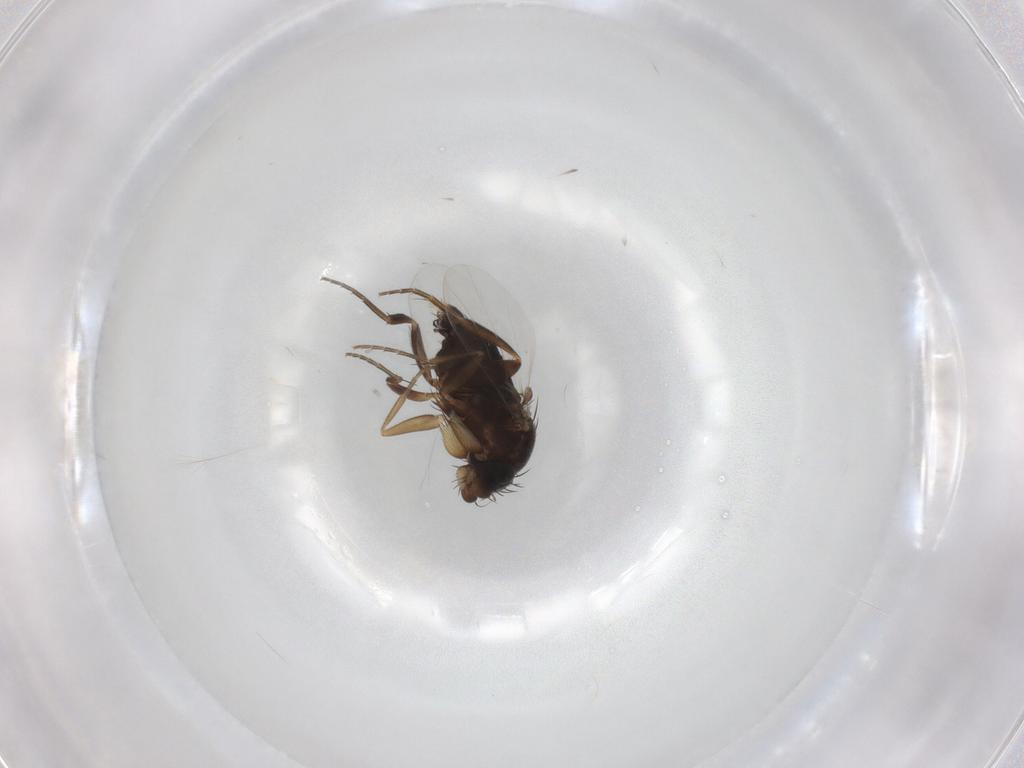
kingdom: Animalia
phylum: Arthropoda
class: Insecta
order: Diptera
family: Phoridae
